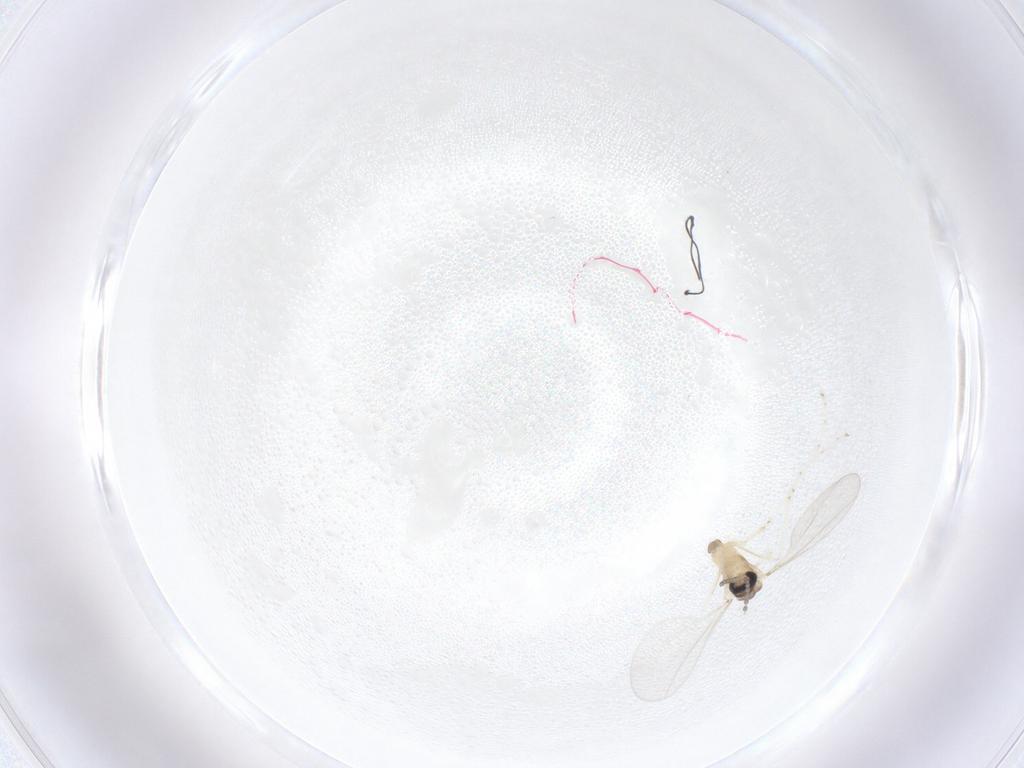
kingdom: Animalia
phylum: Arthropoda
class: Insecta
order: Diptera
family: Cecidomyiidae
